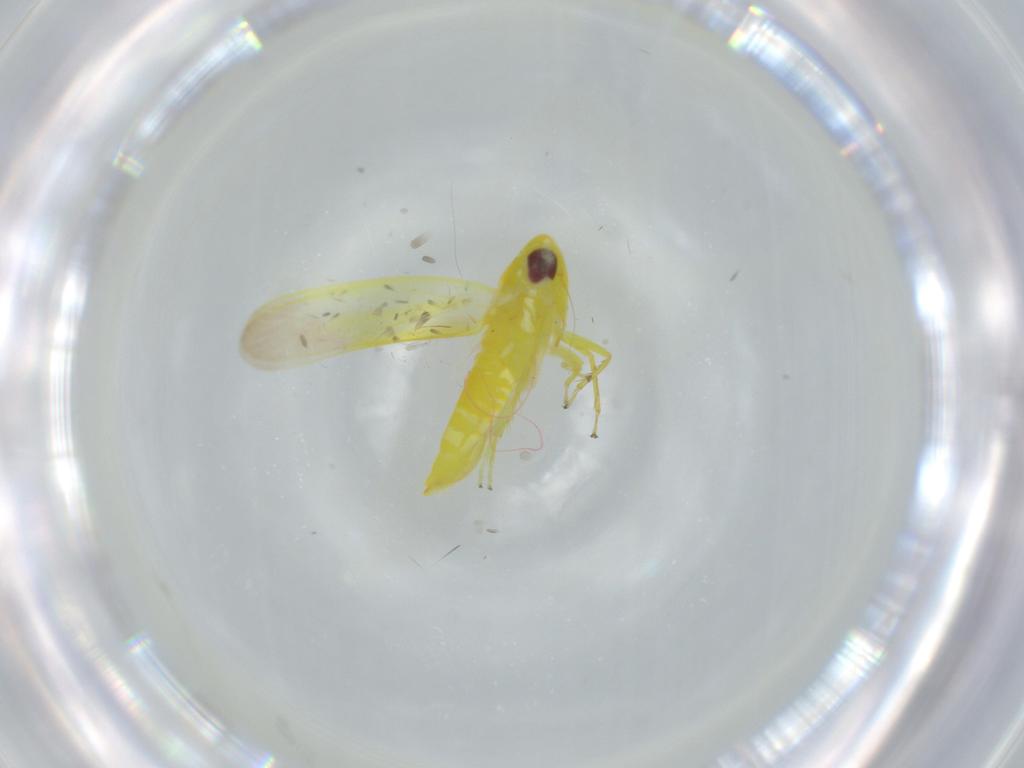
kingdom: Animalia
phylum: Arthropoda
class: Insecta
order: Hemiptera
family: Cicadellidae
